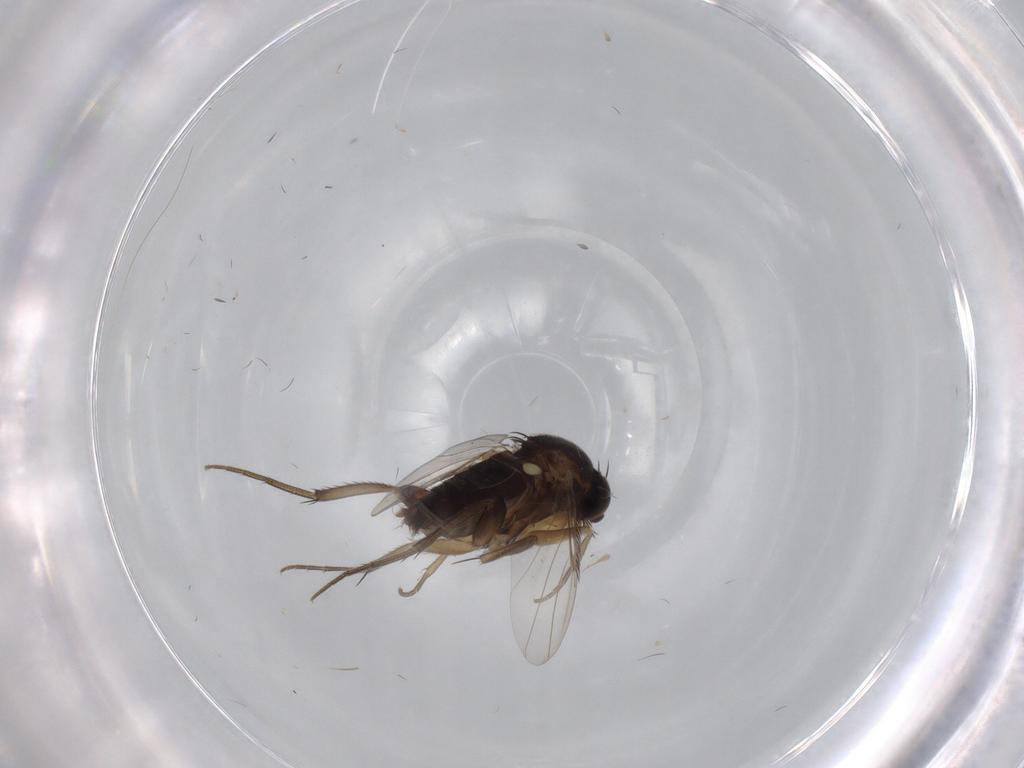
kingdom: Animalia
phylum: Arthropoda
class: Insecta
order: Diptera
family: Phoridae
